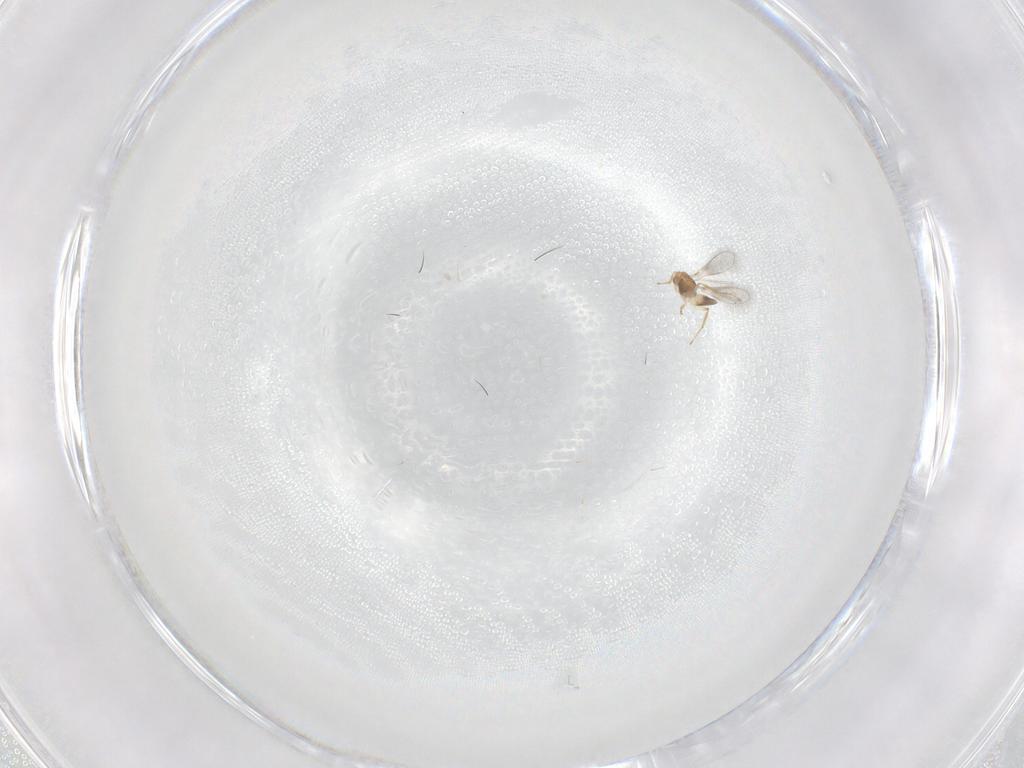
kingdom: Animalia
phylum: Arthropoda
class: Insecta
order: Hymenoptera
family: Mymaridae
